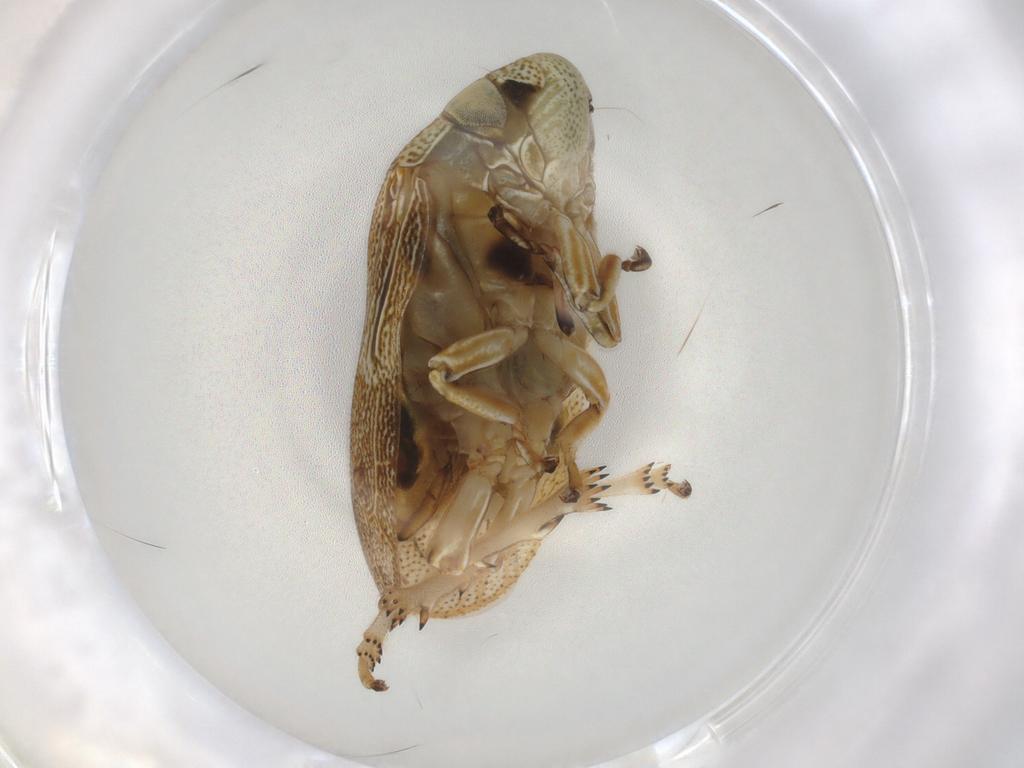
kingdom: Animalia
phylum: Arthropoda
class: Insecta
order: Hemiptera
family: Clastopteridae
